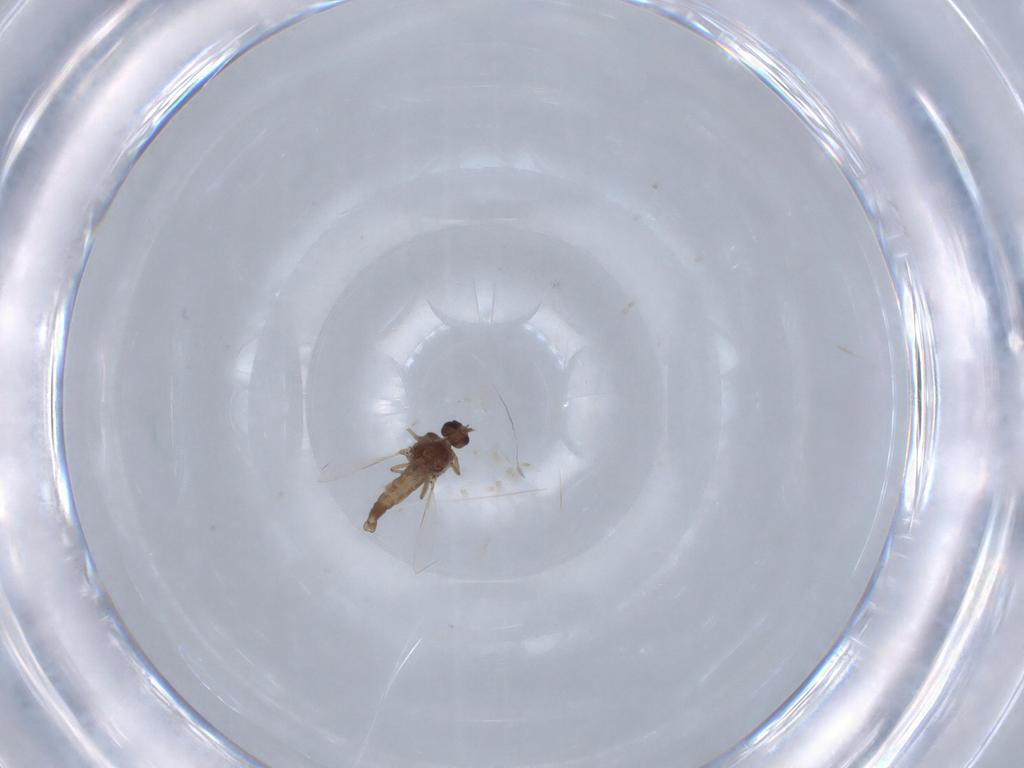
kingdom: Animalia
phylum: Arthropoda
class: Insecta
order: Diptera
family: Ceratopogonidae
